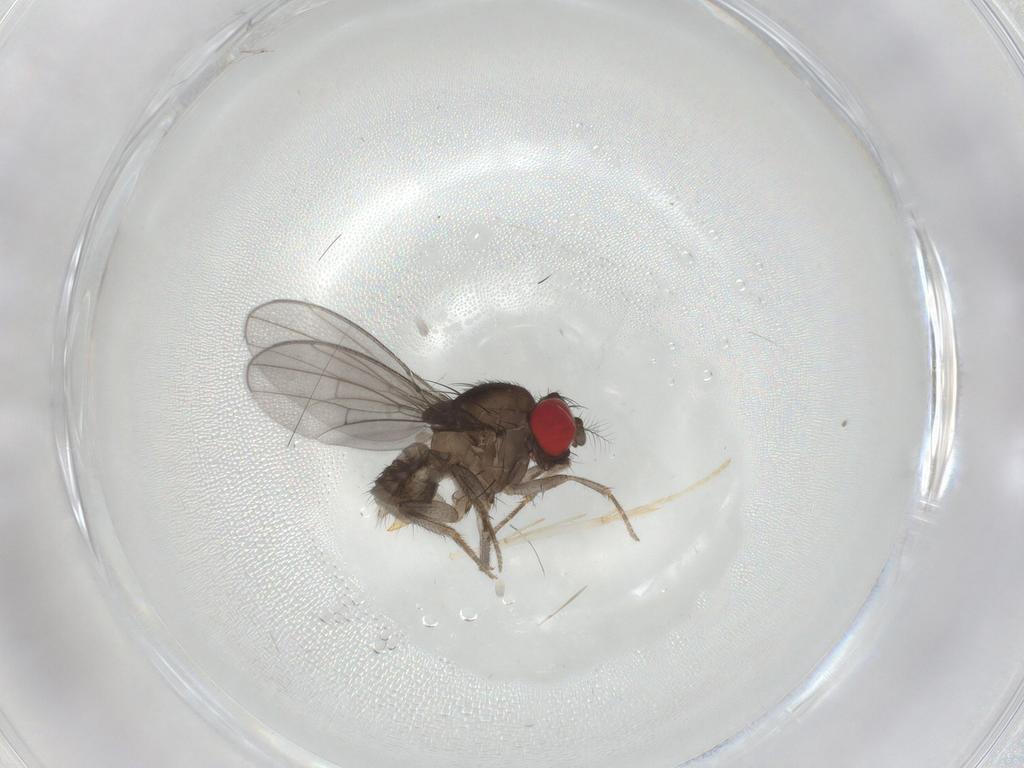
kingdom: Animalia
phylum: Arthropoda
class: Insecta
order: Diptera
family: Drosophilidae
